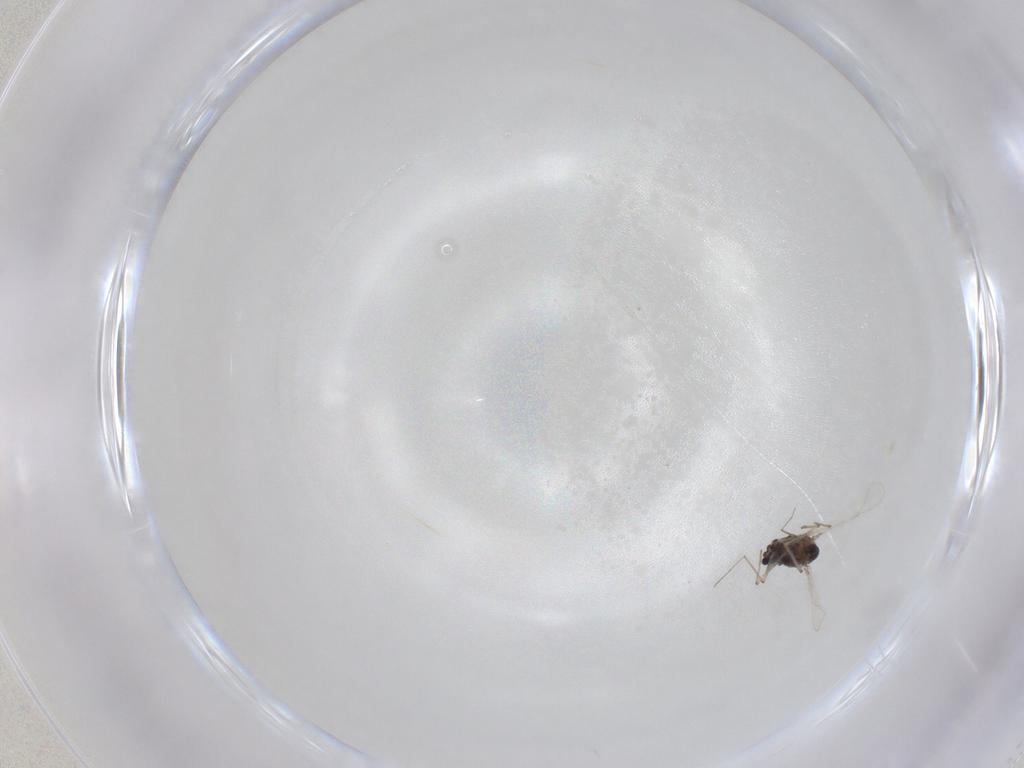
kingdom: Animalia
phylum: Arthropoda
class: Insecta
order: Diptera
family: Chironomidae
